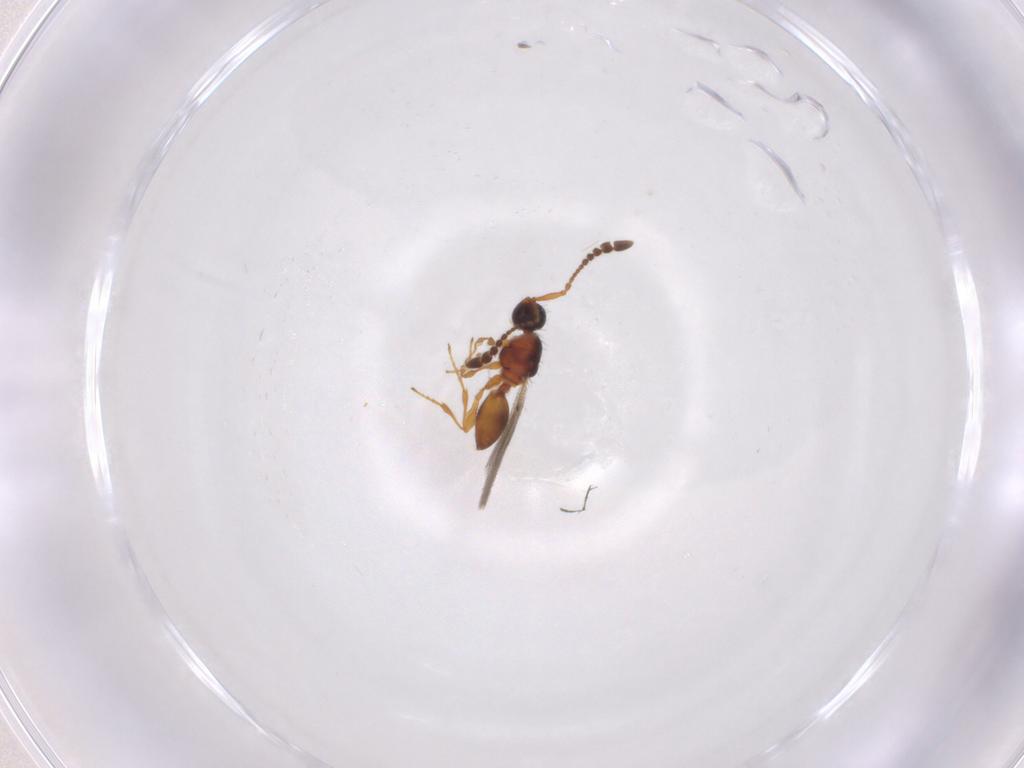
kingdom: Animalia
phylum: Arthropoda
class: Insecta
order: Hymenoptera
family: Diapriidae
